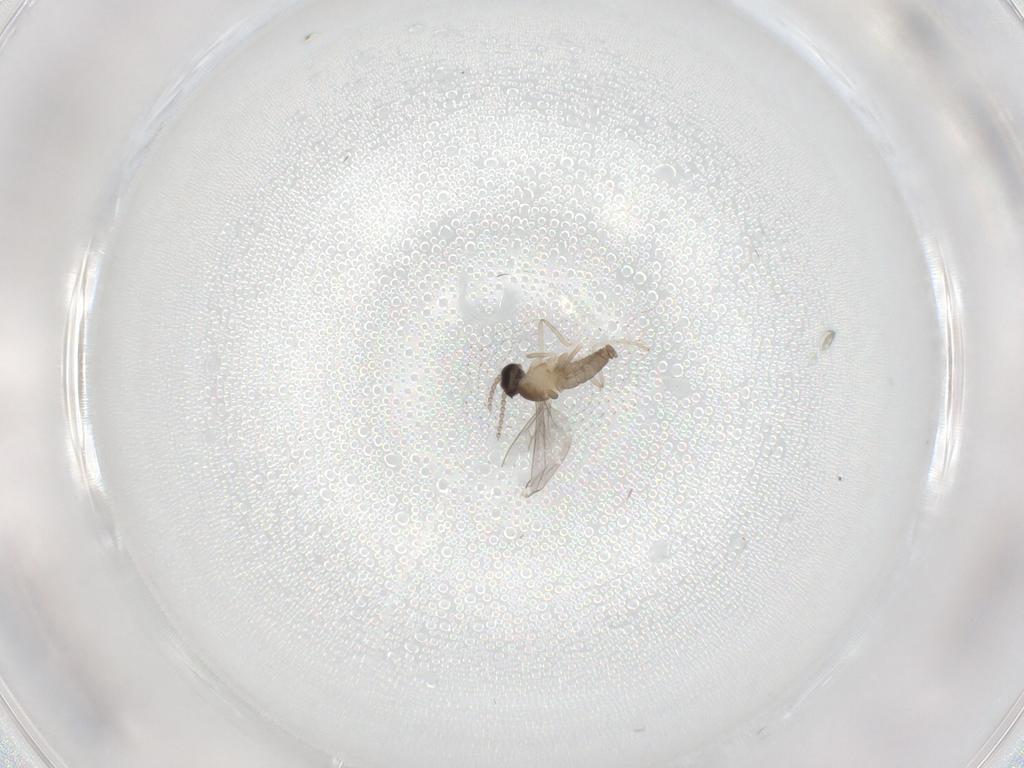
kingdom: Animalia
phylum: Arthropoda
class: Insecta
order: Diptera
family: Cecidomyiidae
